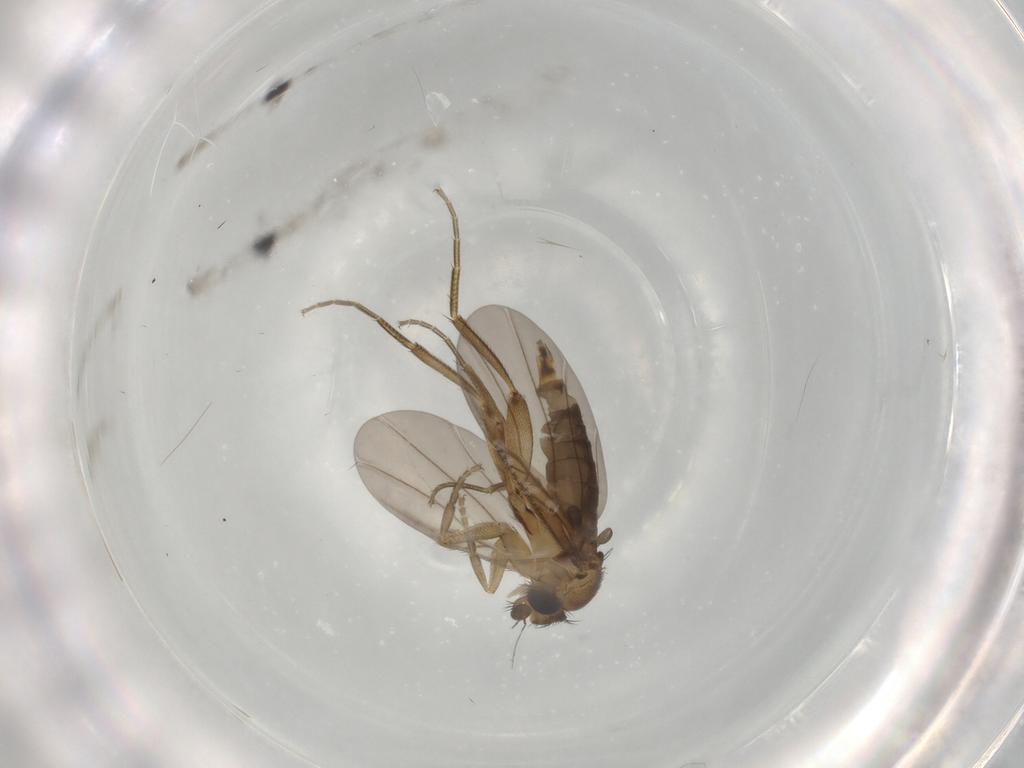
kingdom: Animalia
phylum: Arthropoda
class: Insecta
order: Diptera
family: Phoridae
